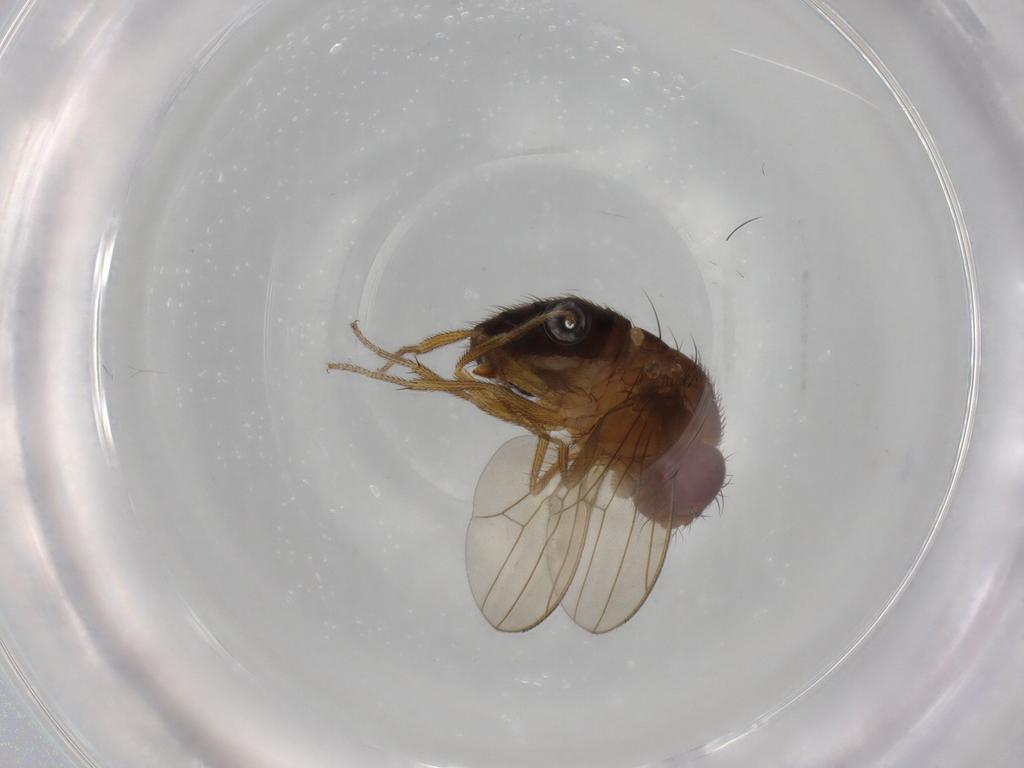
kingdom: Animalia
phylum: Arthropoda
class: Insecta
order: Diptera
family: Drosophilidae
